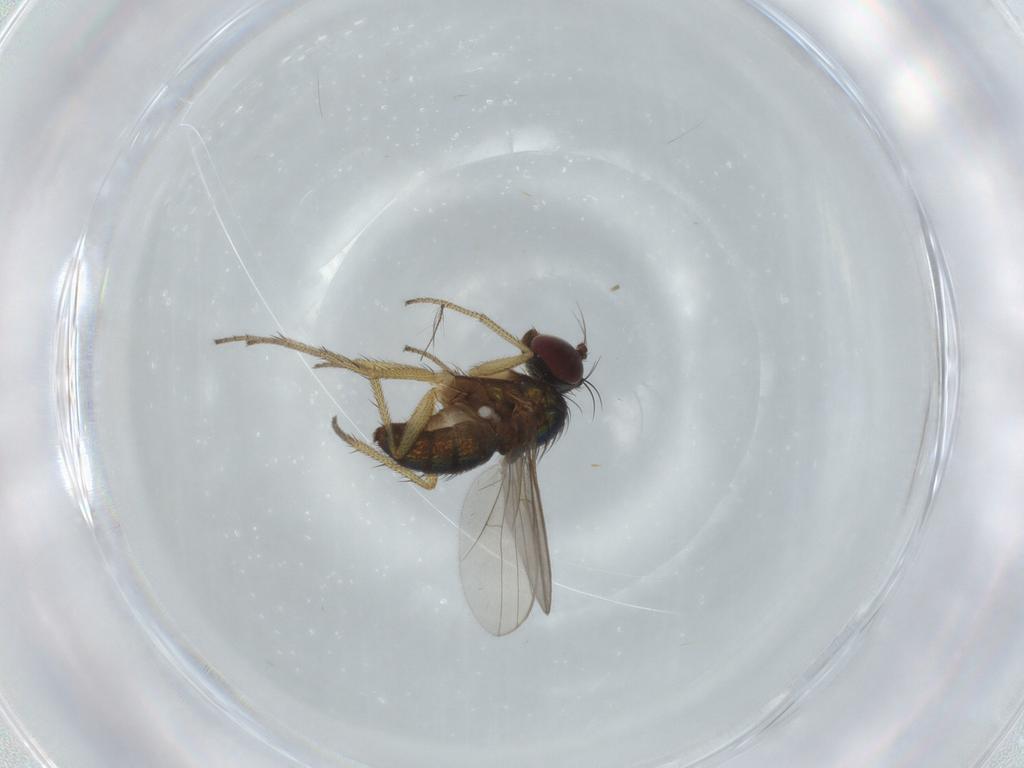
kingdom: Animalia
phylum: Arthropoda
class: Insecta
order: Diptera
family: Dolichopodidae
